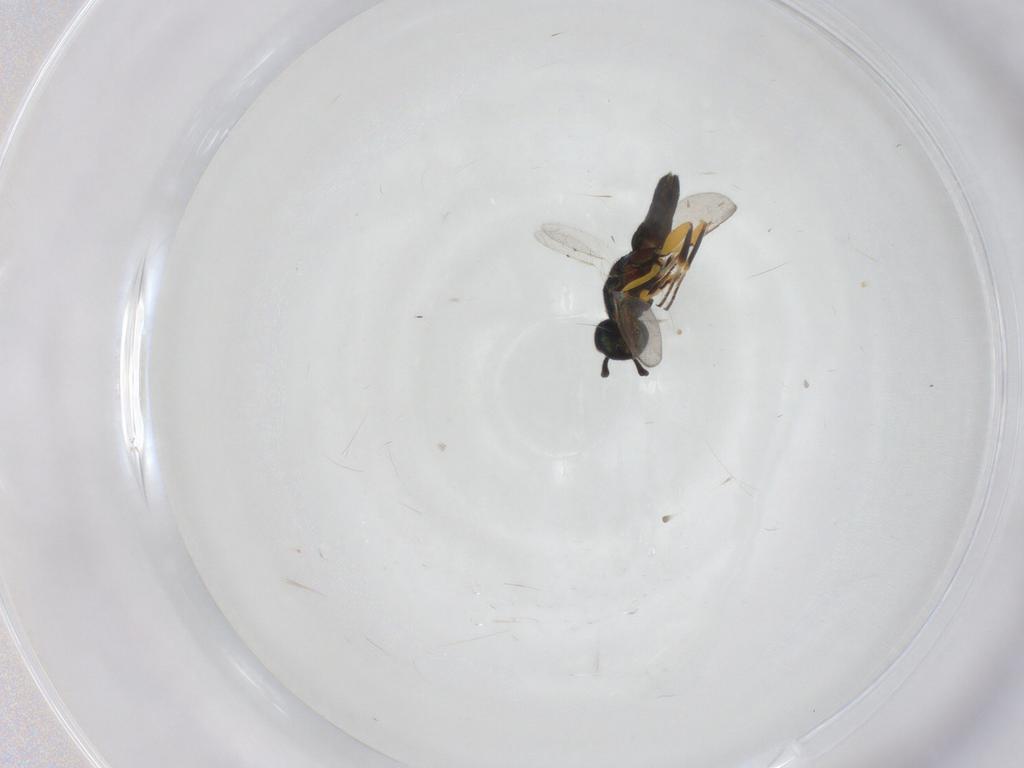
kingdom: Animalia
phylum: Arthropoda
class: Insecta
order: Hymenoptera
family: Eupelmidae
